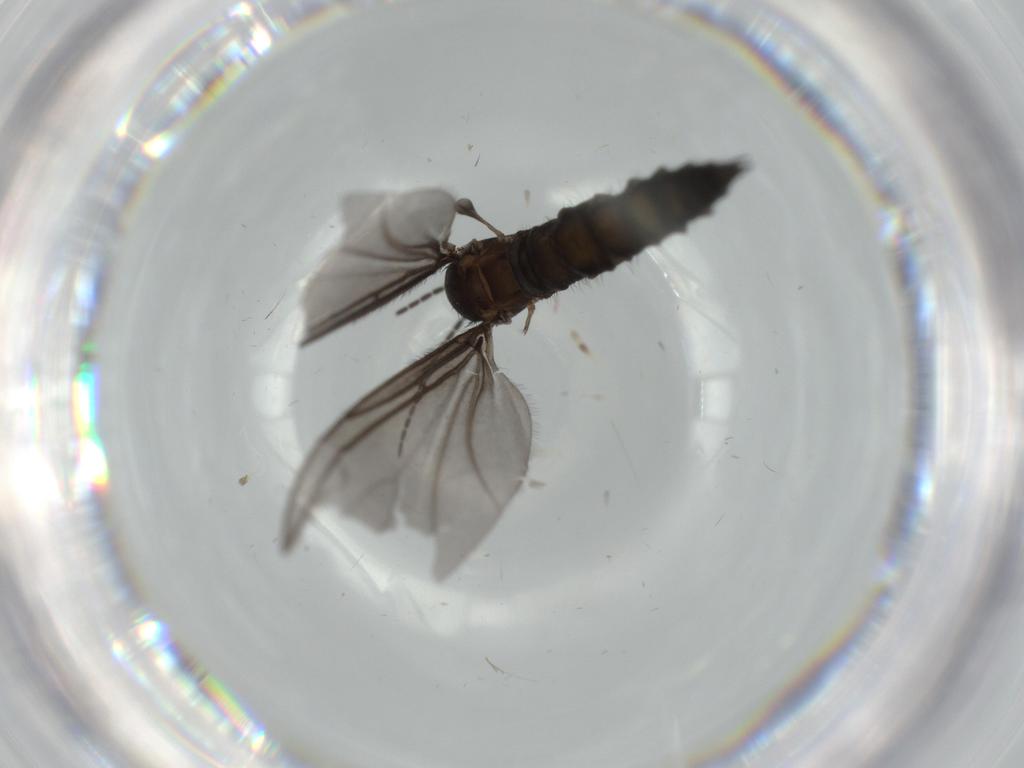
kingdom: Animalia
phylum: Arthropoda
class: Insecta
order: Diptera
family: Sciaridae
